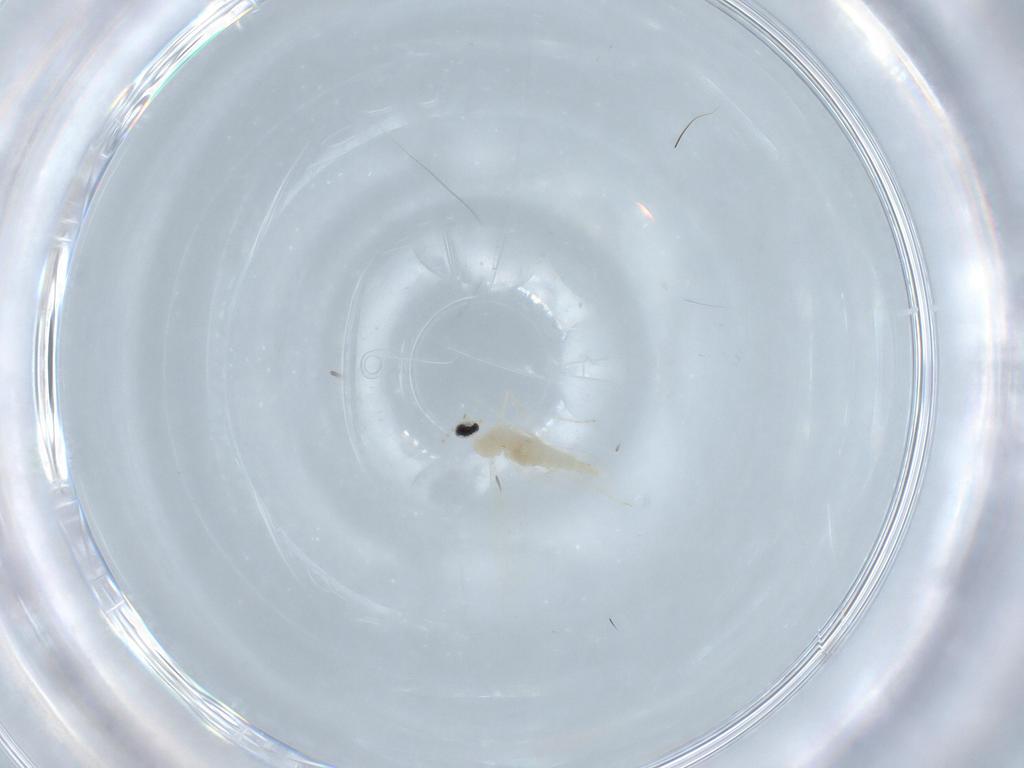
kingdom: Animalia
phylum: Arthropoda
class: Insecta
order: Diptera
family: Cecidomyiidae
